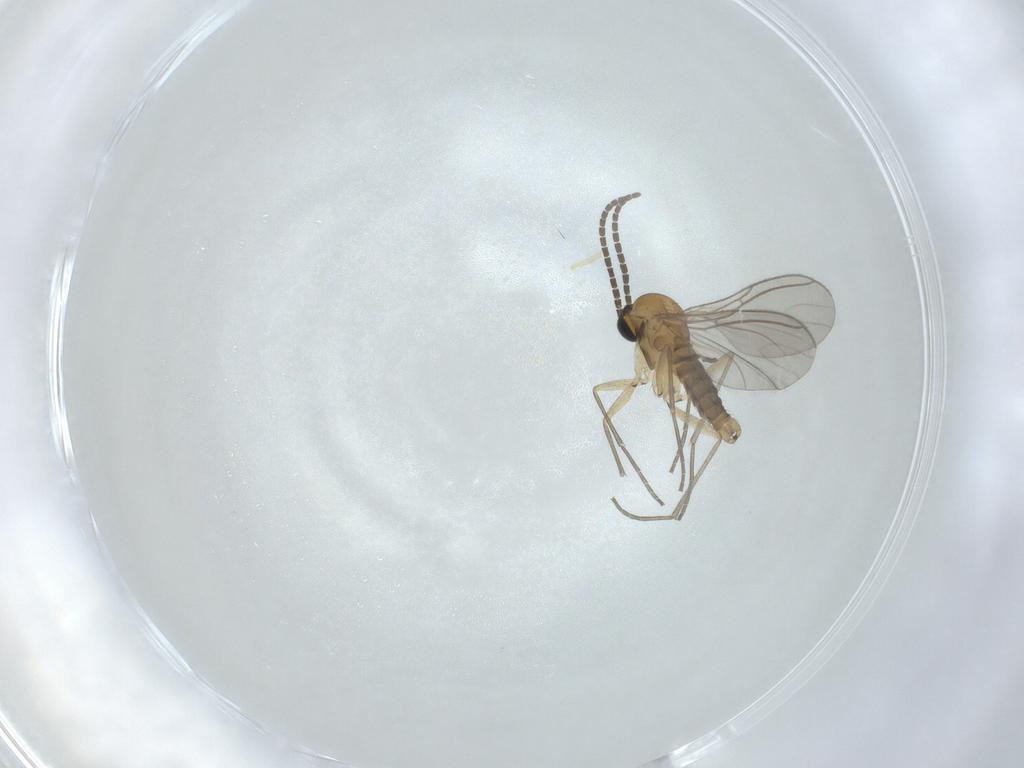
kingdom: Animalia
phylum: Arthropoda
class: Insecta
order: Diptera
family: Sciaridae
